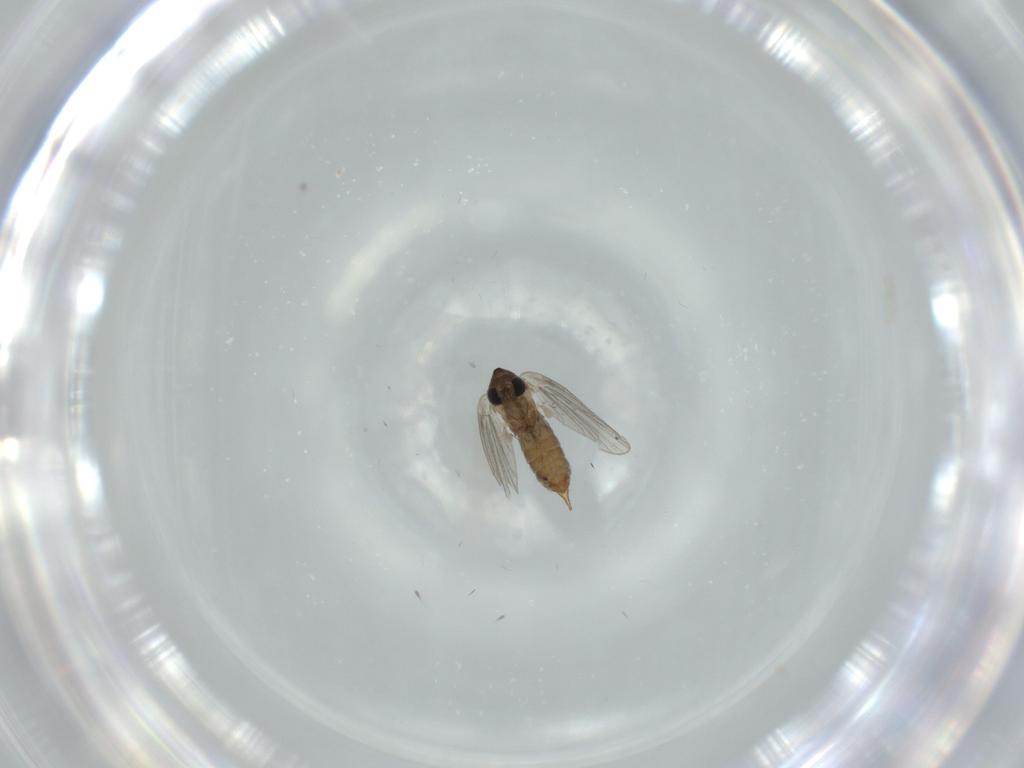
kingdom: Animalia
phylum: Arthropoda
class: Insecta
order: Diptera
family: Psychodidae
